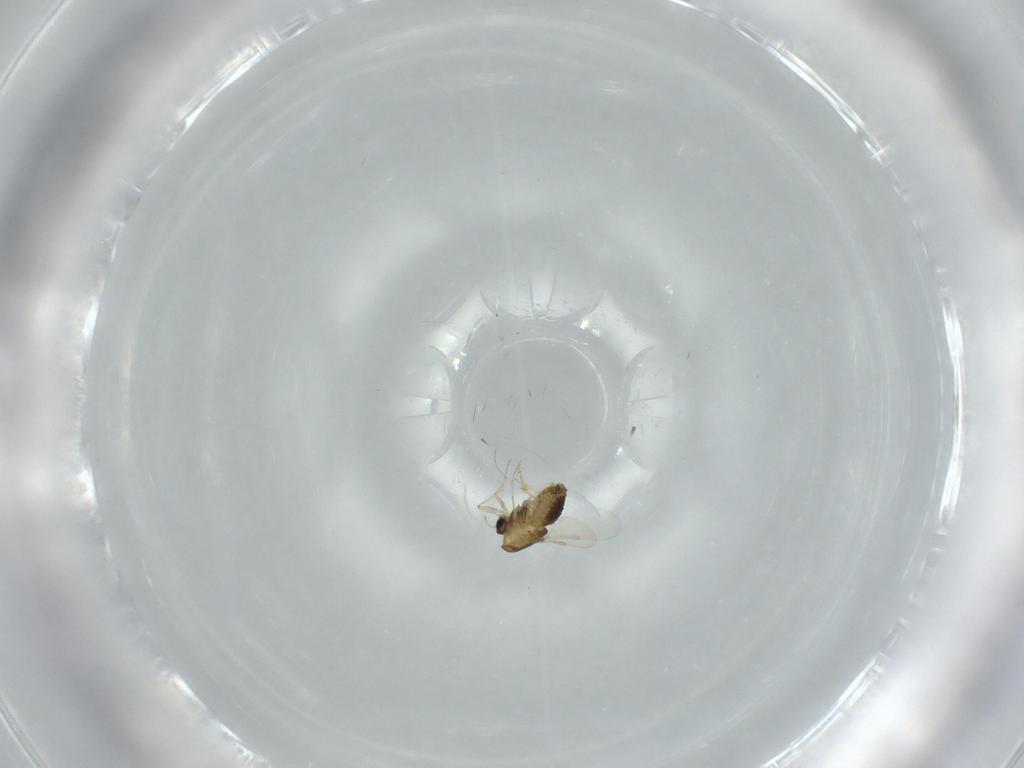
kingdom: Animalia
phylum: Arthropoda
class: Insecta
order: Diptera
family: Chironomidae
